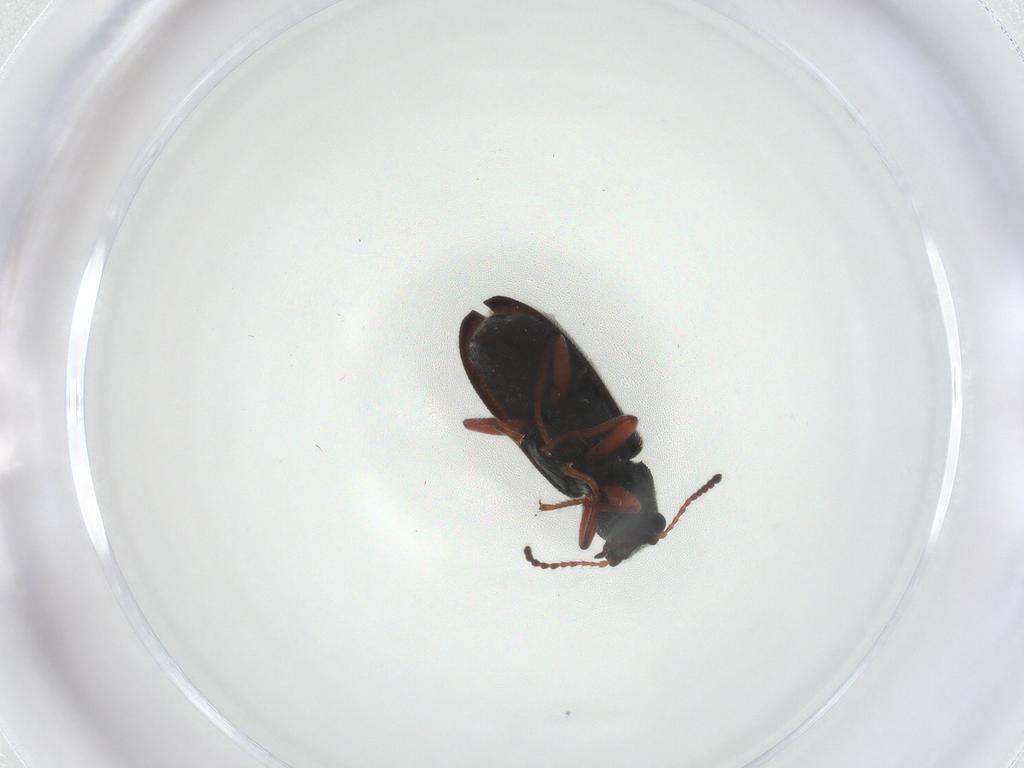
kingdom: Animalia
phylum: Arthropoda
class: Insecta
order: Coleoptera
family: Melyridae
